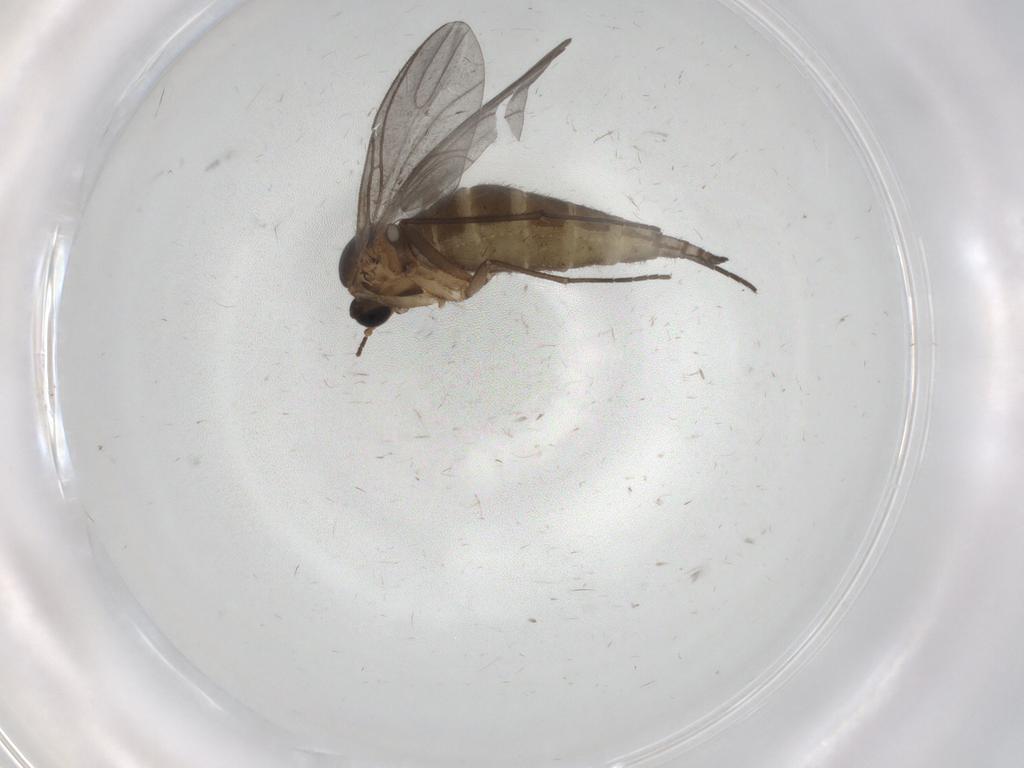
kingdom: Animalia
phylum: Arthropoda
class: Insecta
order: Diptera
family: Sciaridae
